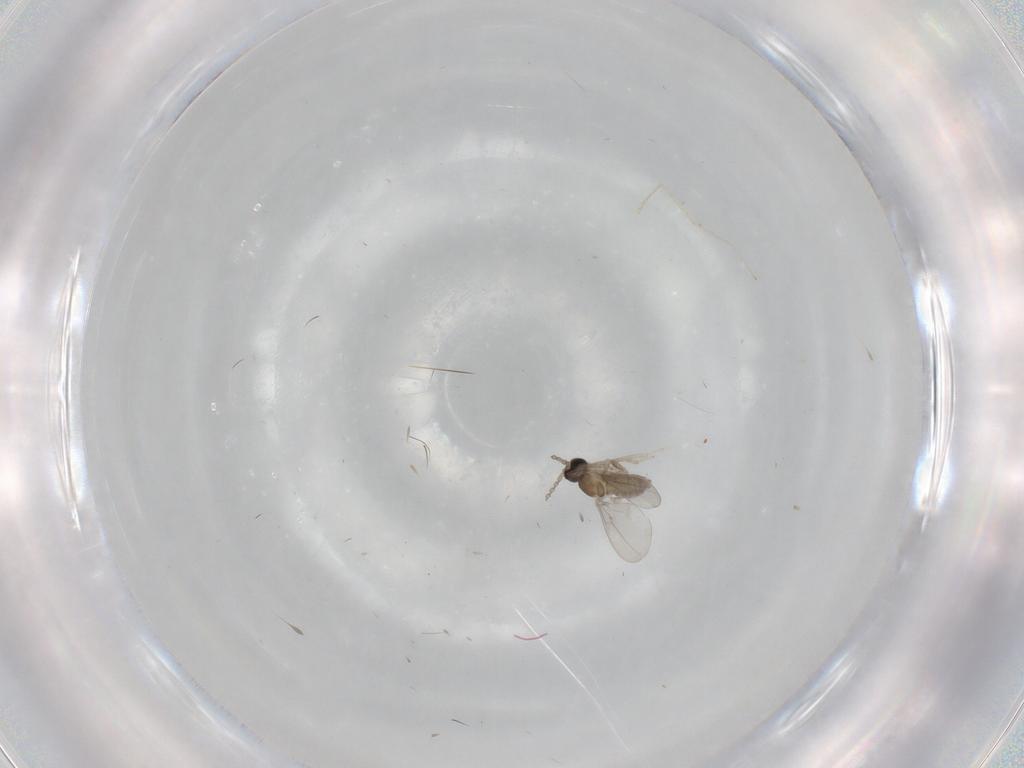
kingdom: Animalia
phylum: Arthropoda
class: Insecta
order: Diptera
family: Cecidomyiidae
